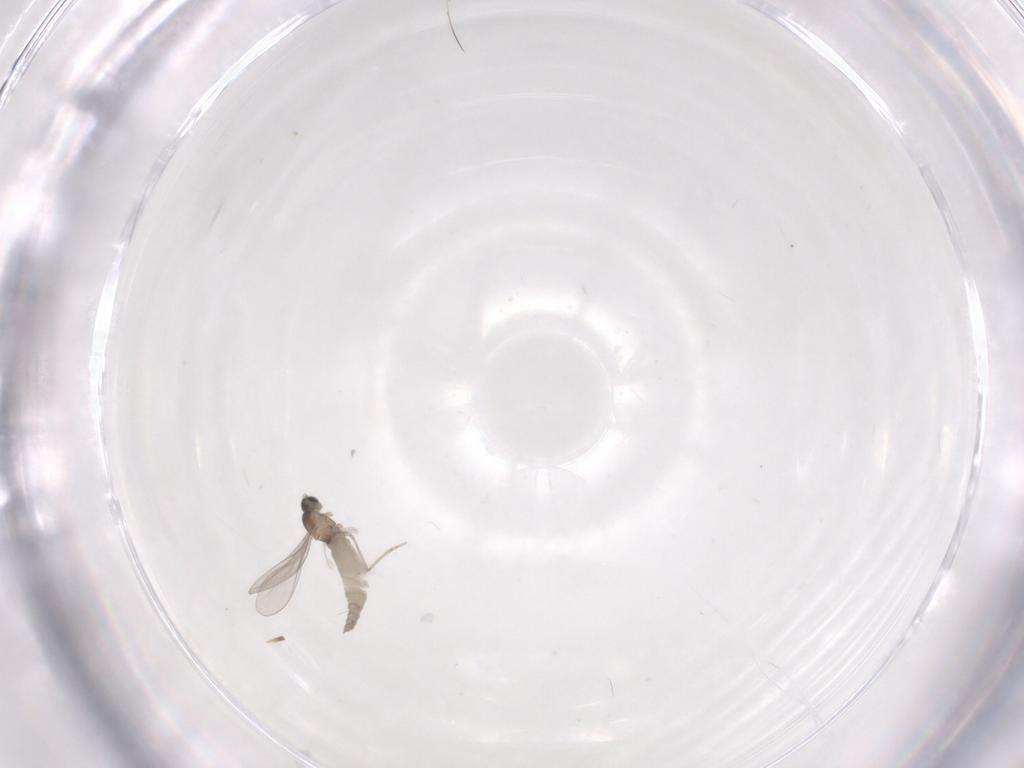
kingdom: Animalia
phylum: Arthropoda
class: Insecta
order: Diptera
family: Cecidomyiidae
